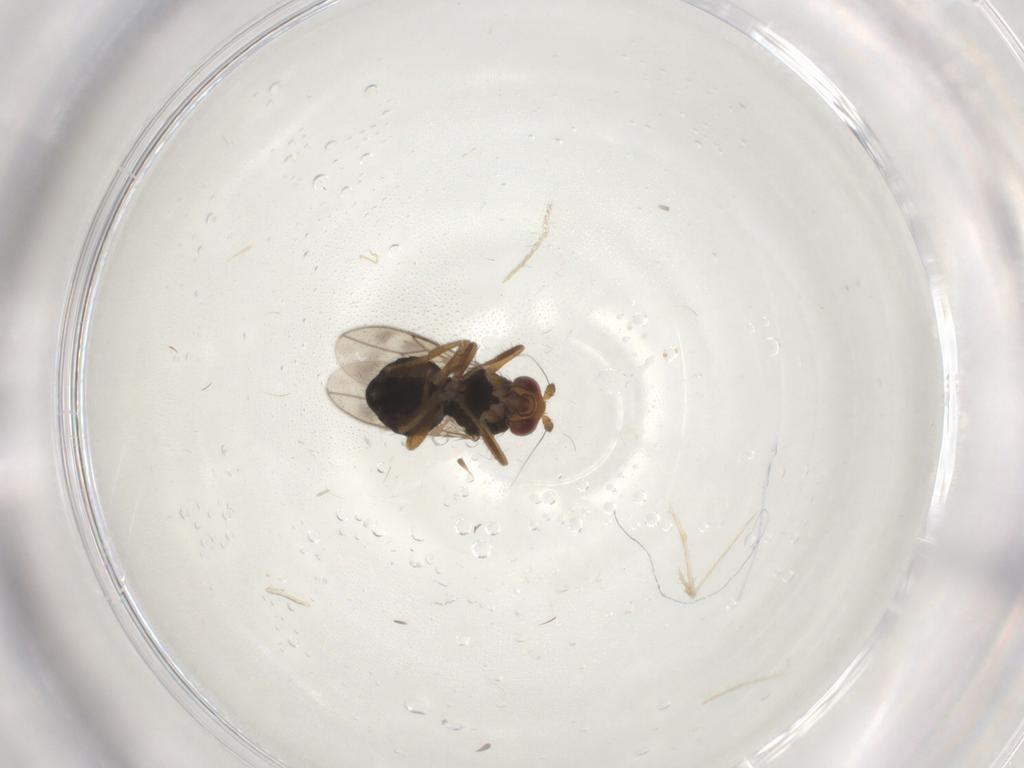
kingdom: Animalia
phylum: Arthropoda
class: Insecta
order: Diptera
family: Sphaeroceridae
